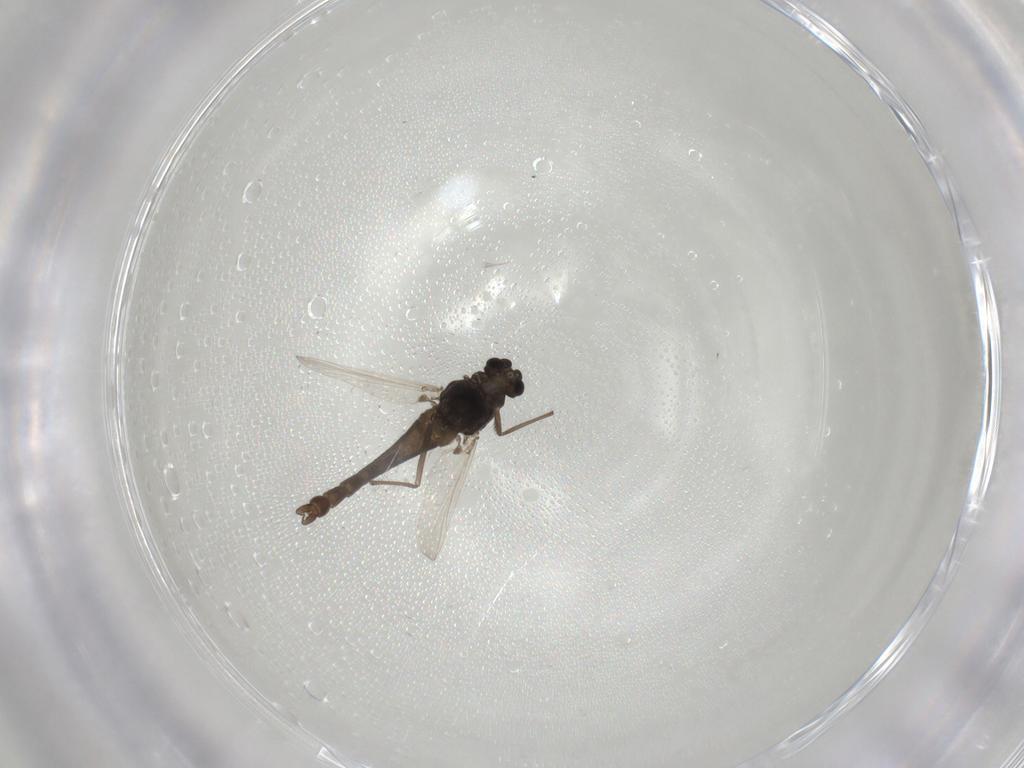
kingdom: Animalia
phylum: Arthropoda
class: Insecta
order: Diptera
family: Chironomidae
